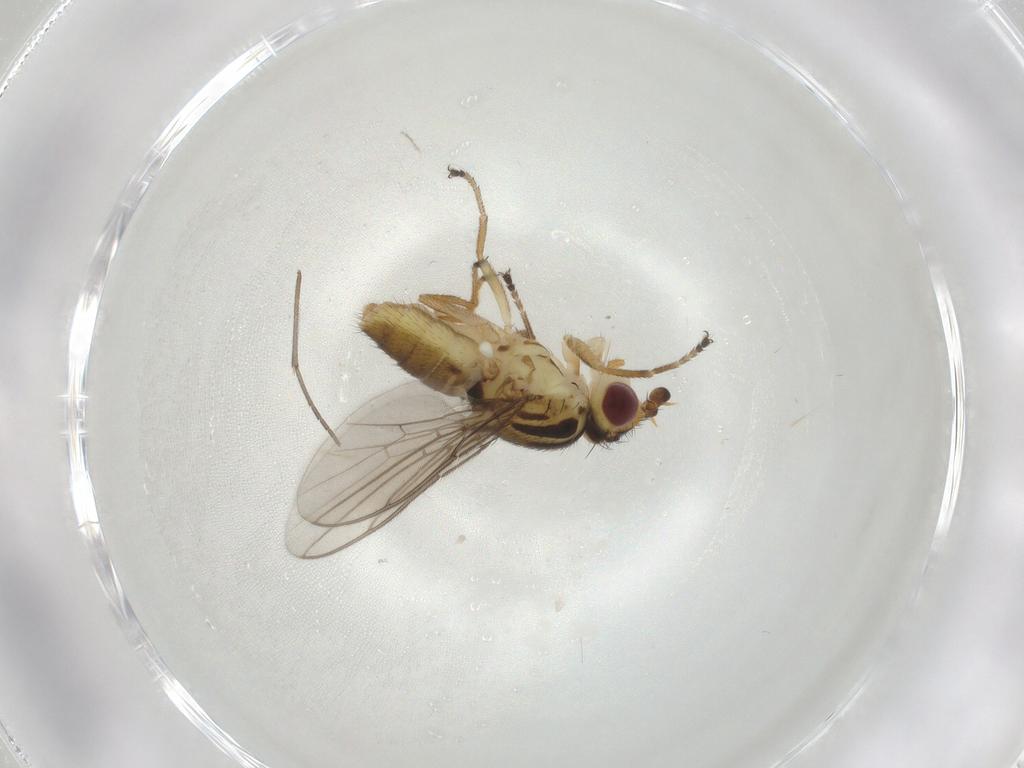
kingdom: Animalia
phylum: Arthropoda
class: Insecta
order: Diptera
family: Chloropidae
